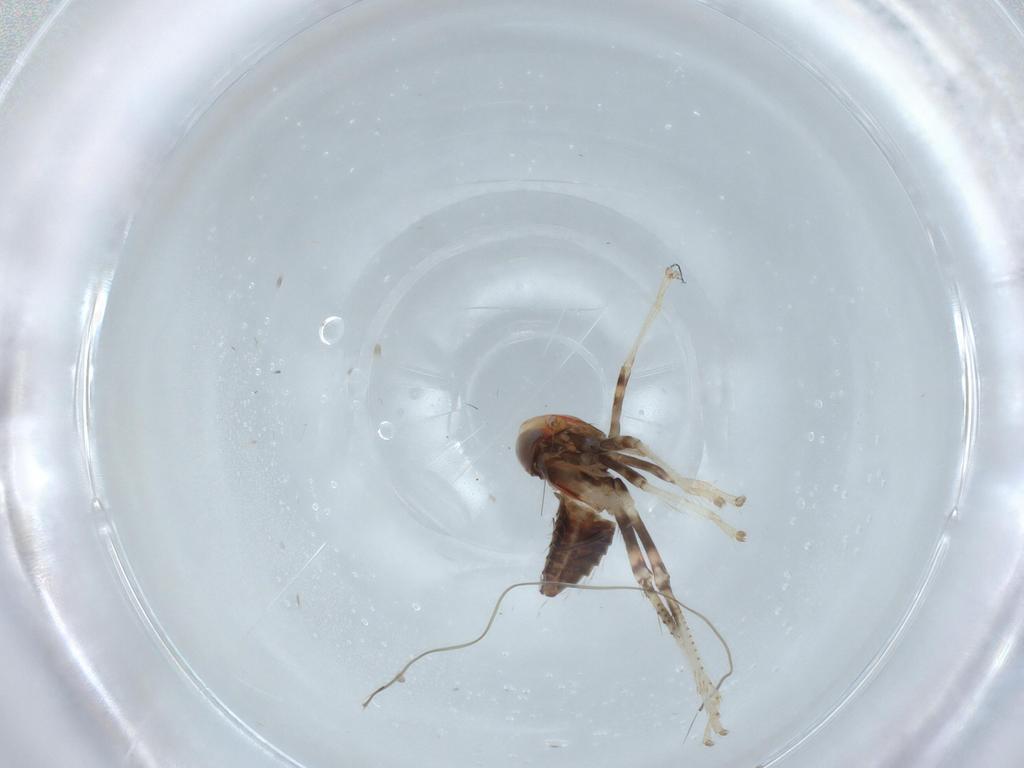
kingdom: Animalia
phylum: Arthropoda
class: Insecta
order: Hemiptera
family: Cicadellidae
